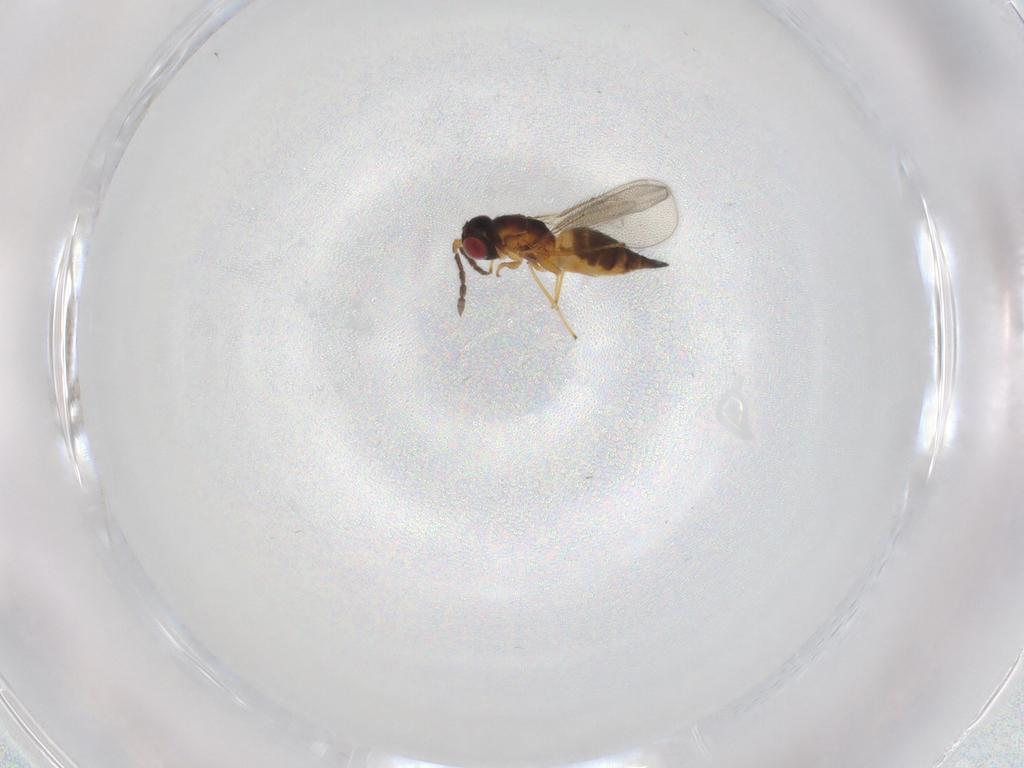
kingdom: Animalia
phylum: Arthropoda
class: Insecta
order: Hymenoptera
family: Eulophidae
